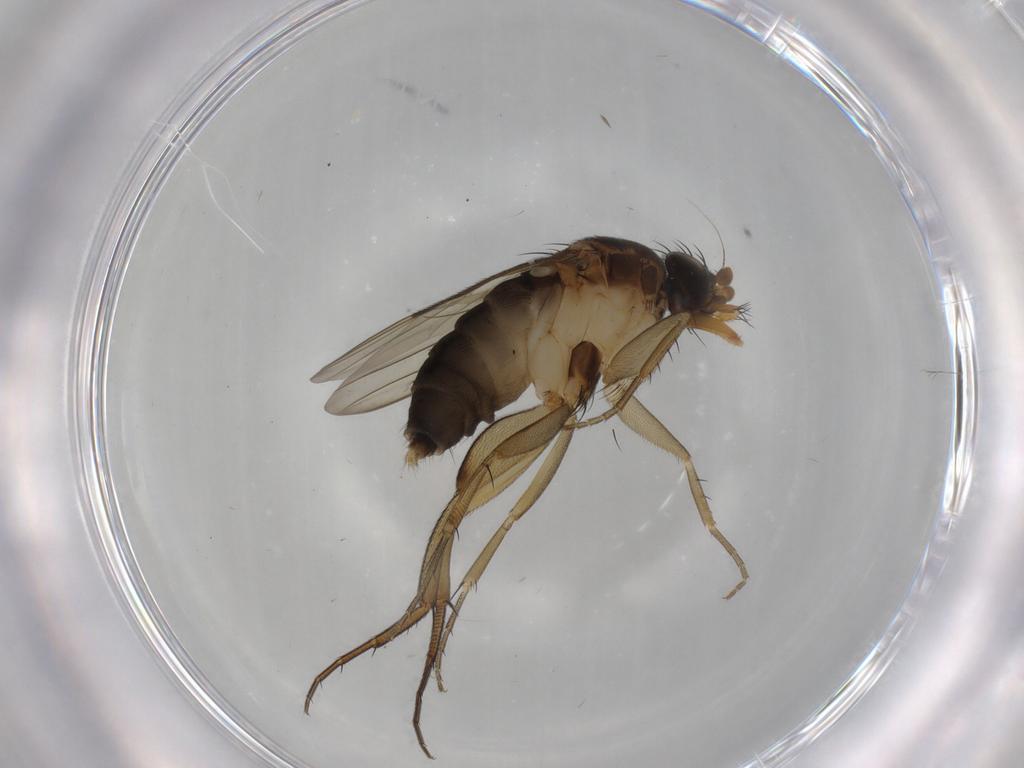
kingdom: Animalia
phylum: Arthropoda
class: Insecta
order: Diptera
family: Phoridae
